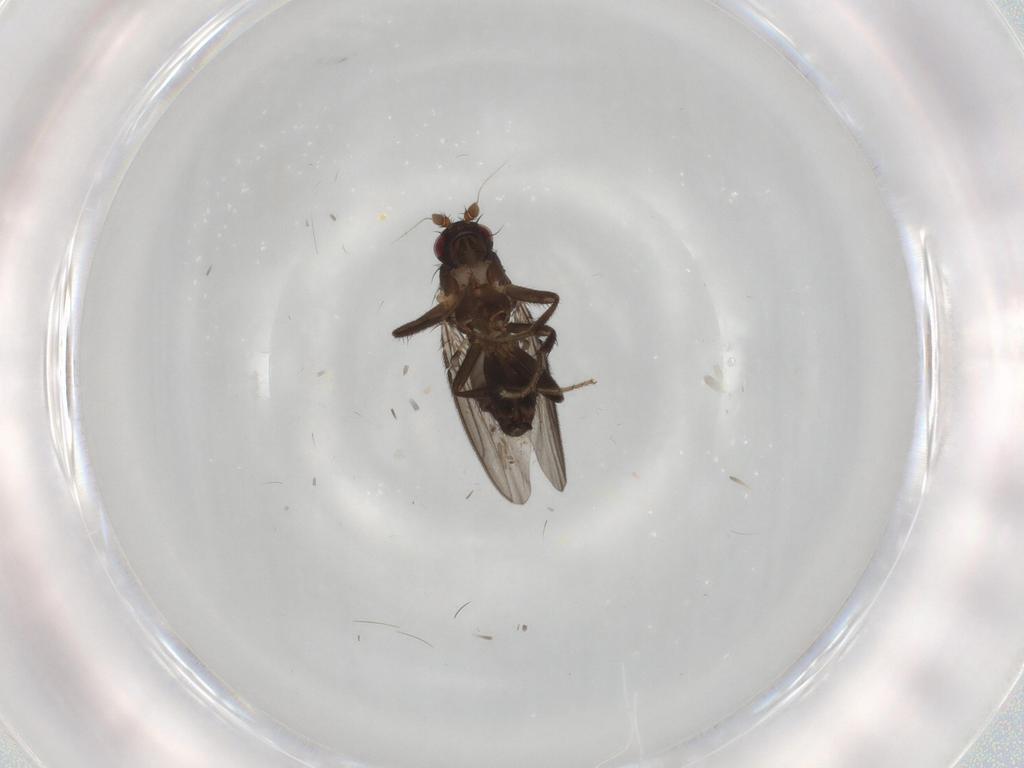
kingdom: Animalia
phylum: Arthropoda
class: Insecta
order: Diptera
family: Sphaeroceridae
